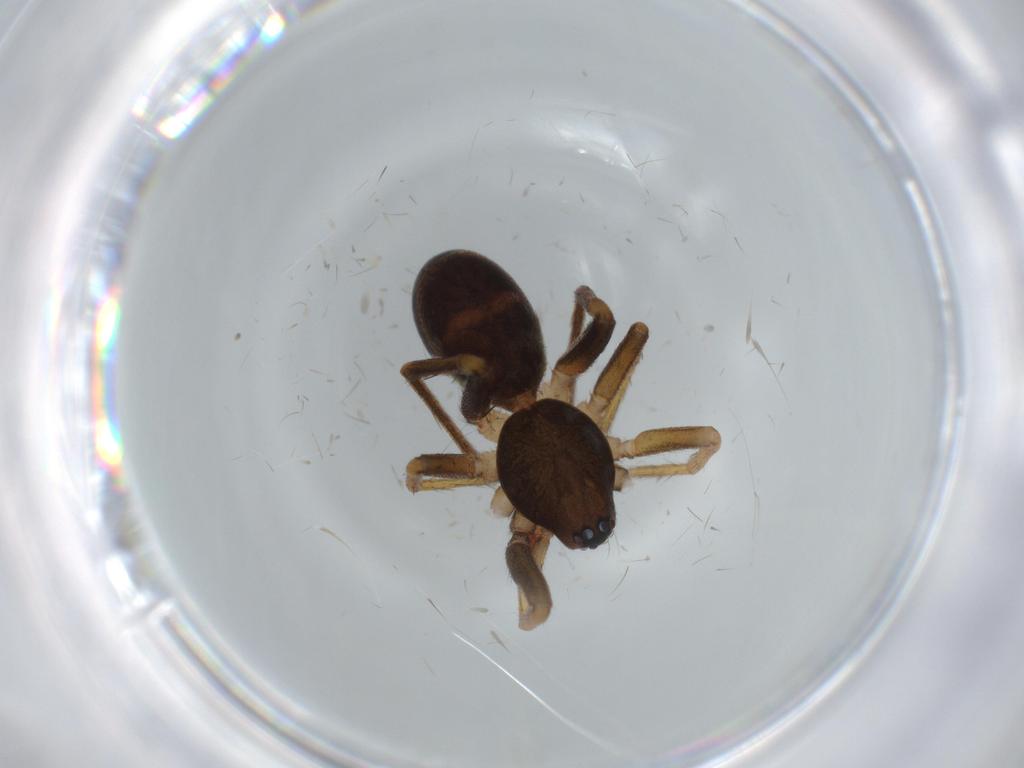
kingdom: Animalia
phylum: Arthropoda
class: Arachnida
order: Araneae
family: Corinnidae
